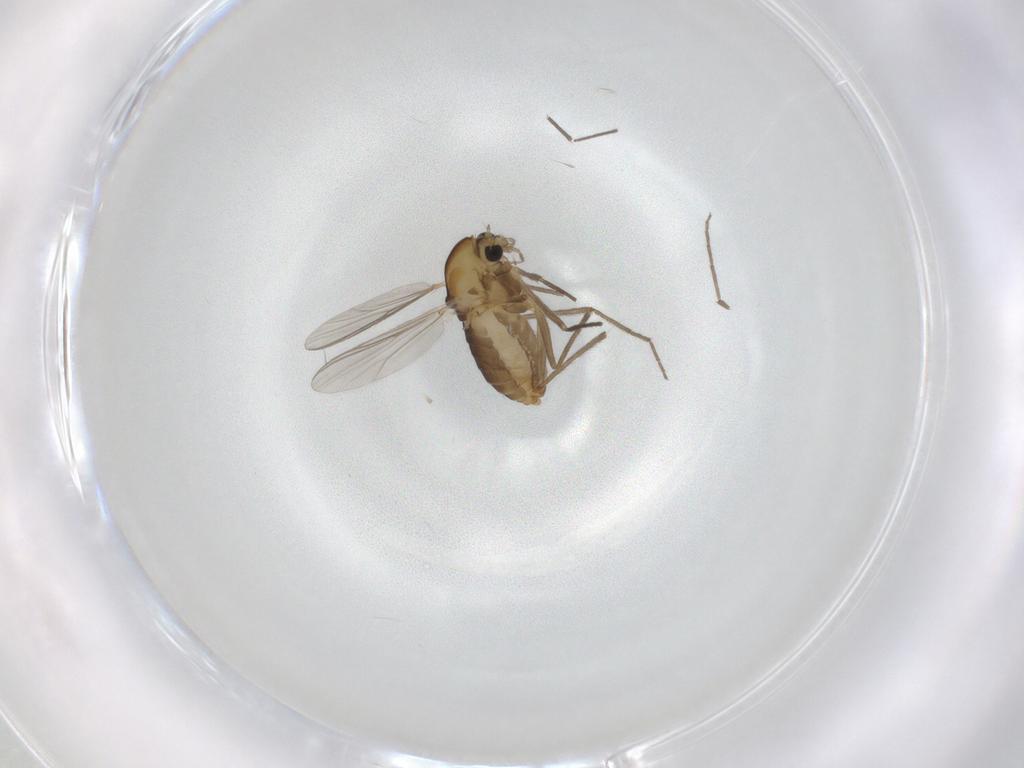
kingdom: Animalia
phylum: Arthropoda
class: Insecta
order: Diptera
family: Chironomidae
